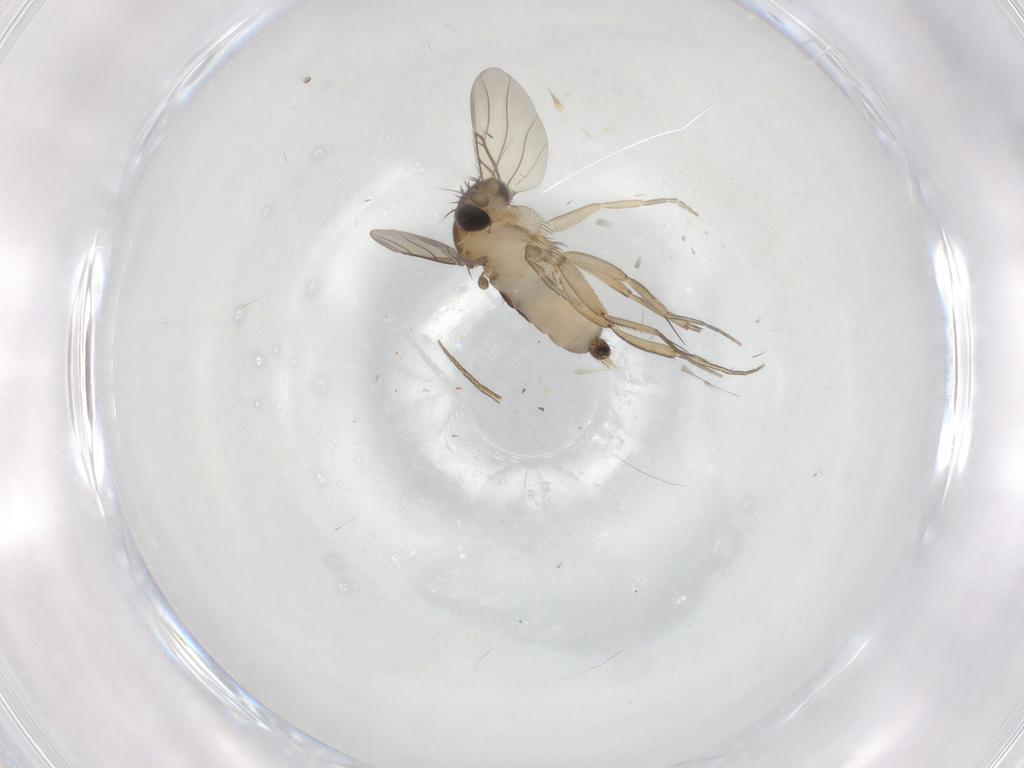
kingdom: Animalia
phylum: Arthropoda
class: Insecta
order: Diptera
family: Phoridae
